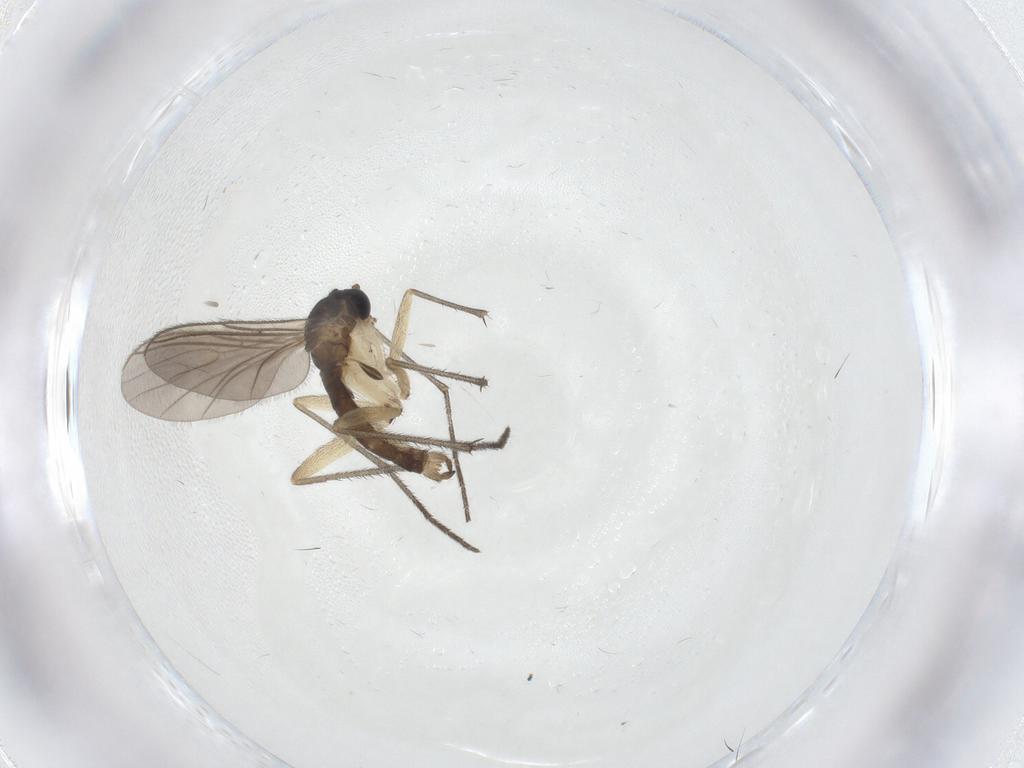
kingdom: Animalia
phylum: Arthropoda
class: Insecta
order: Diptera
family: Sciaridae
